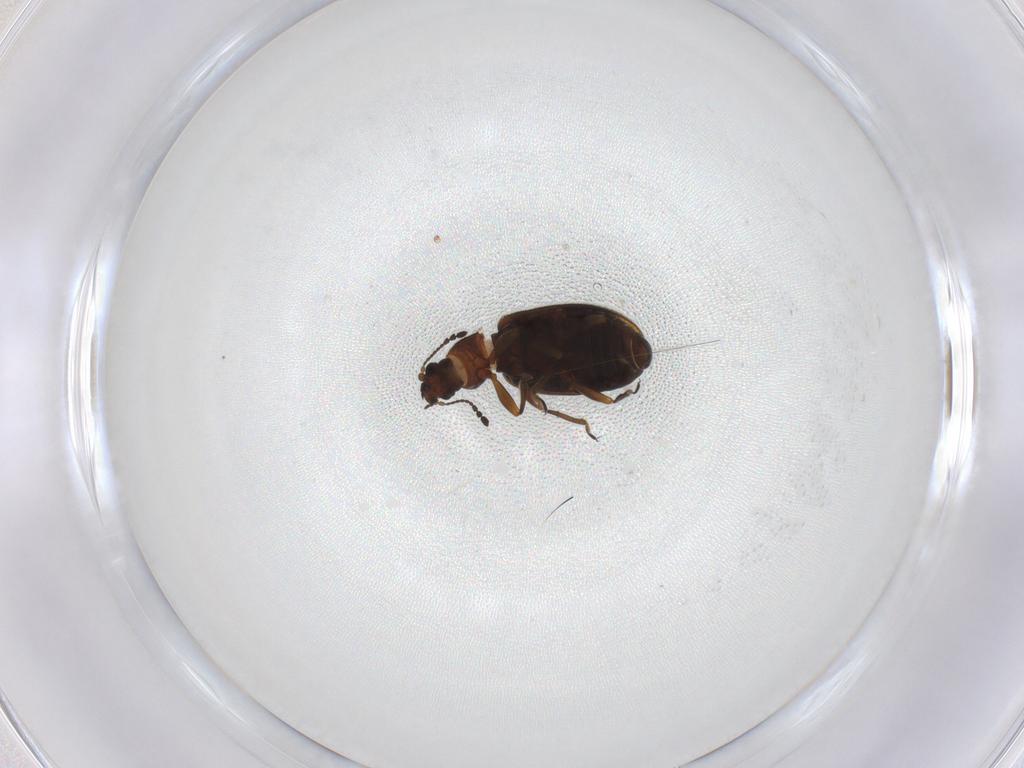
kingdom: Animalia
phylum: Arthropoda
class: Insecta
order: Coleoptera
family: Latridiidae
